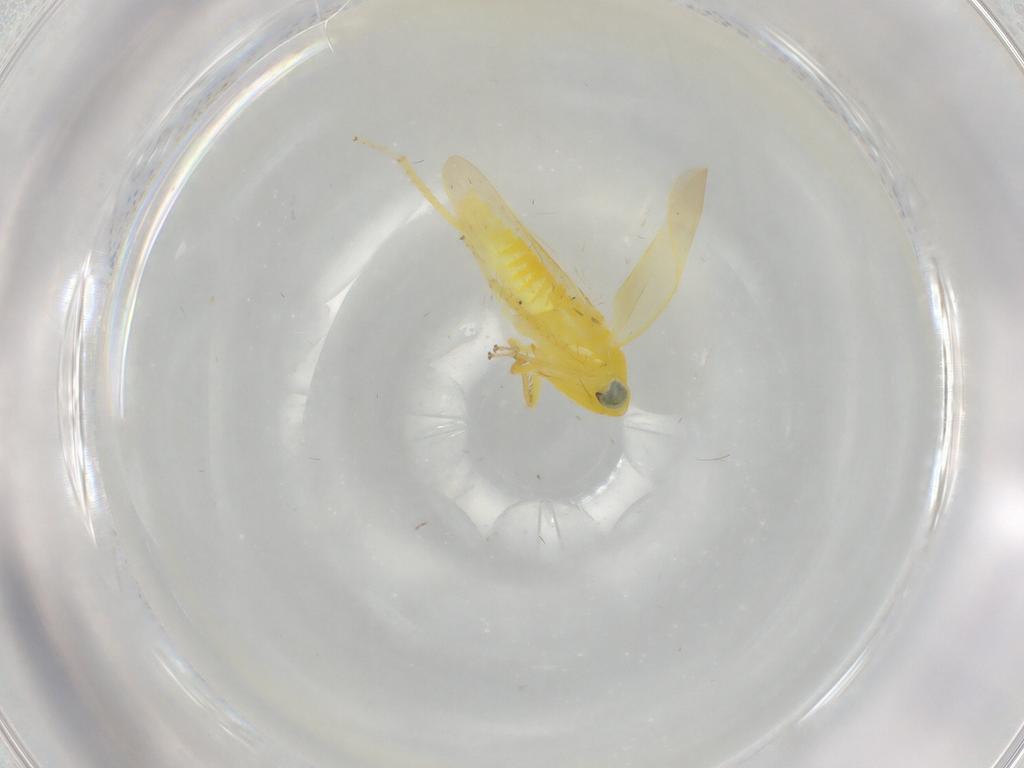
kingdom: Animalia
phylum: Arthropoda
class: Insecta
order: Hemiptera
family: Cicadellidae
